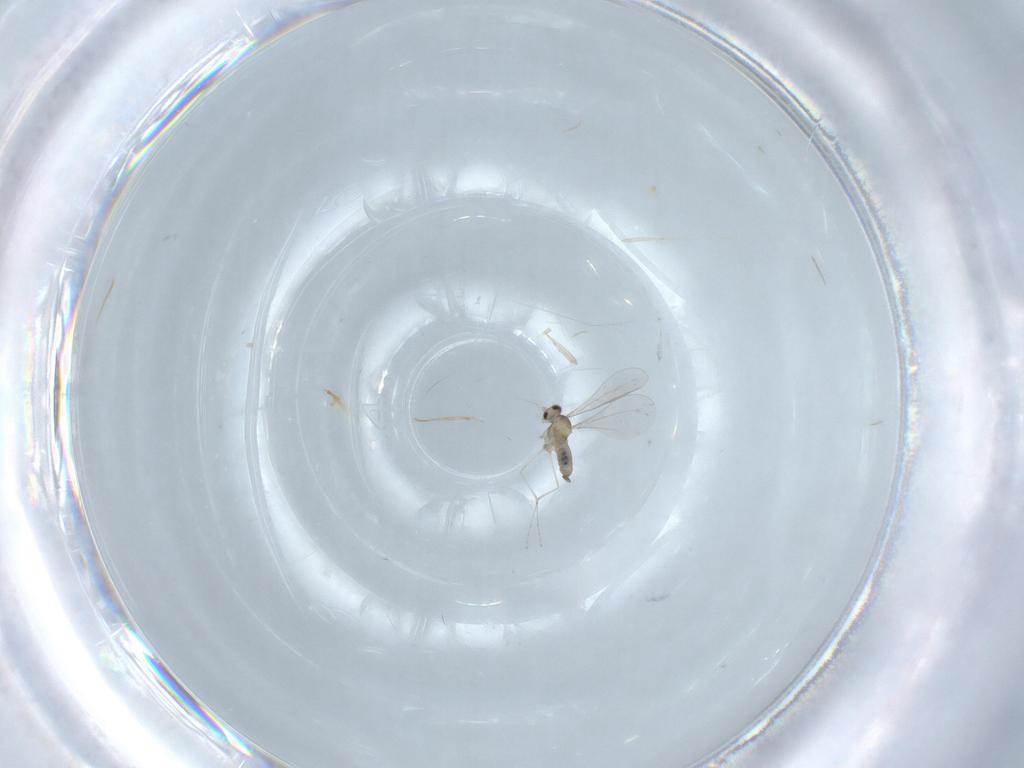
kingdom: Animalia
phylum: Arthropoda
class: Insecta
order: Diptera
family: Cecidomyiidae
